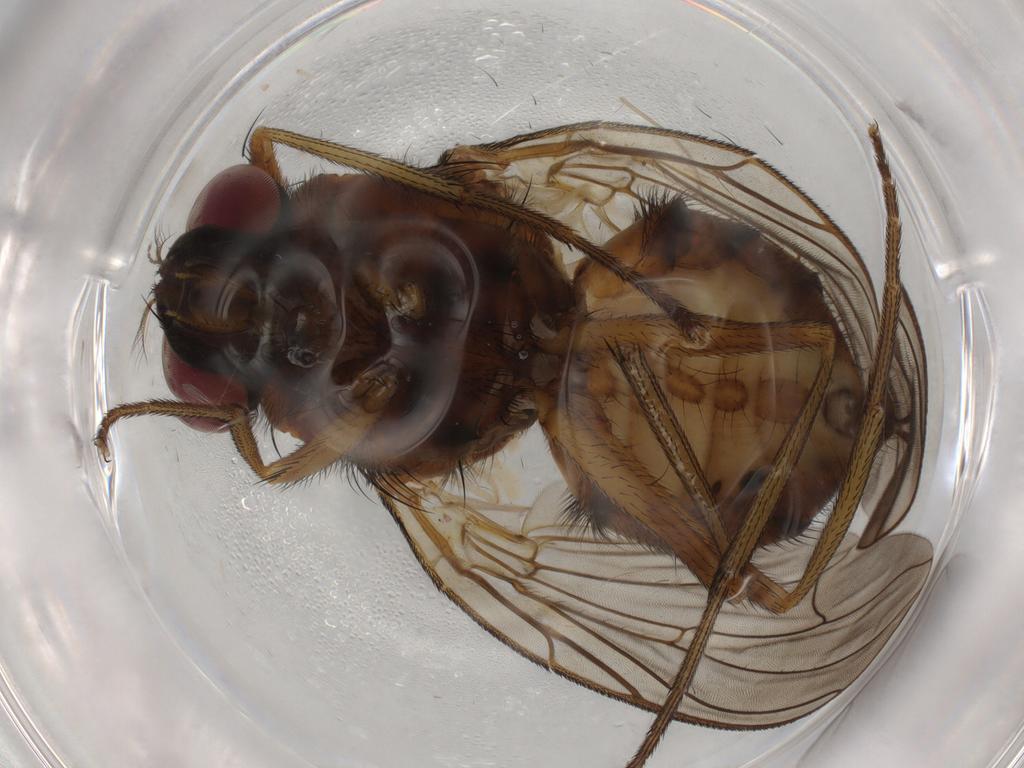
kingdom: Animalia
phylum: Arthropoda
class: Insecta
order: Diptera
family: Muscidae
